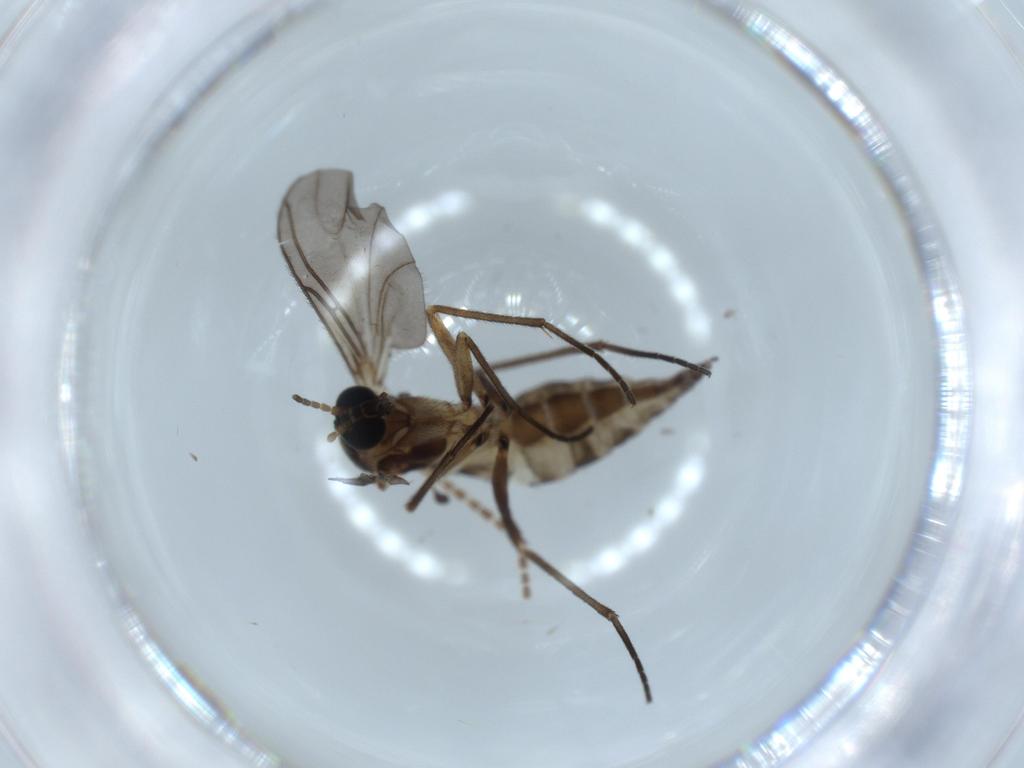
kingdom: Animalia
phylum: Arthropoda
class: Insecta
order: Diptera
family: Sciaridae
